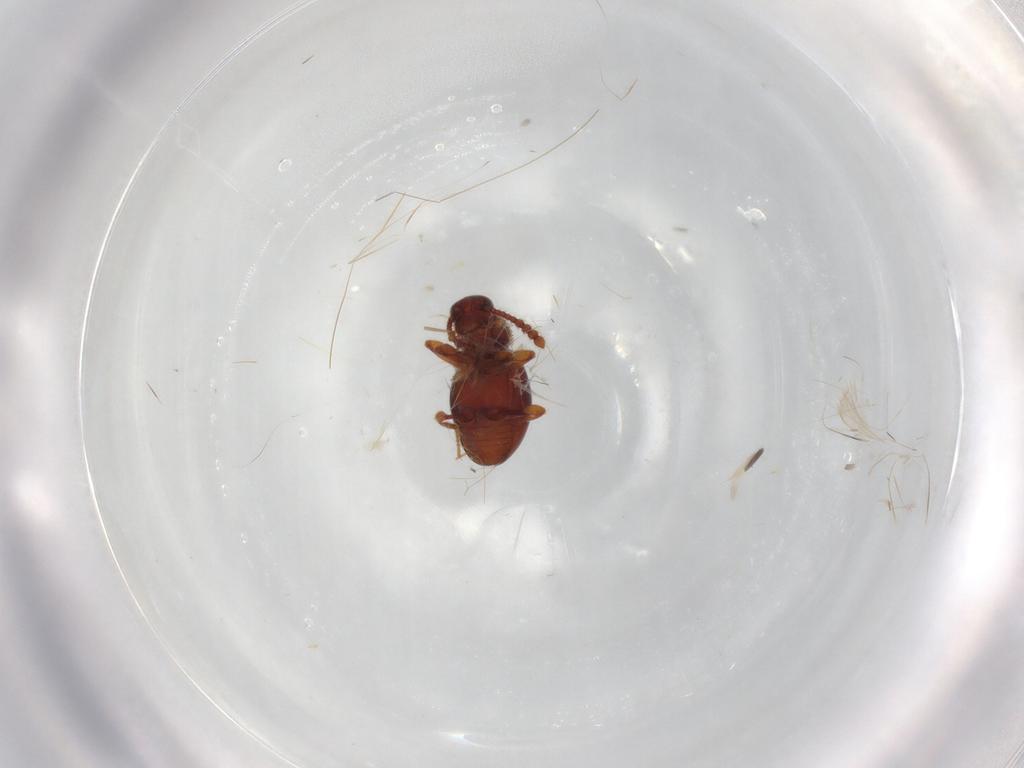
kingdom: Animalia
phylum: Arthropoda
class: Insecta
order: Coleoptera
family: Staphylinidae
